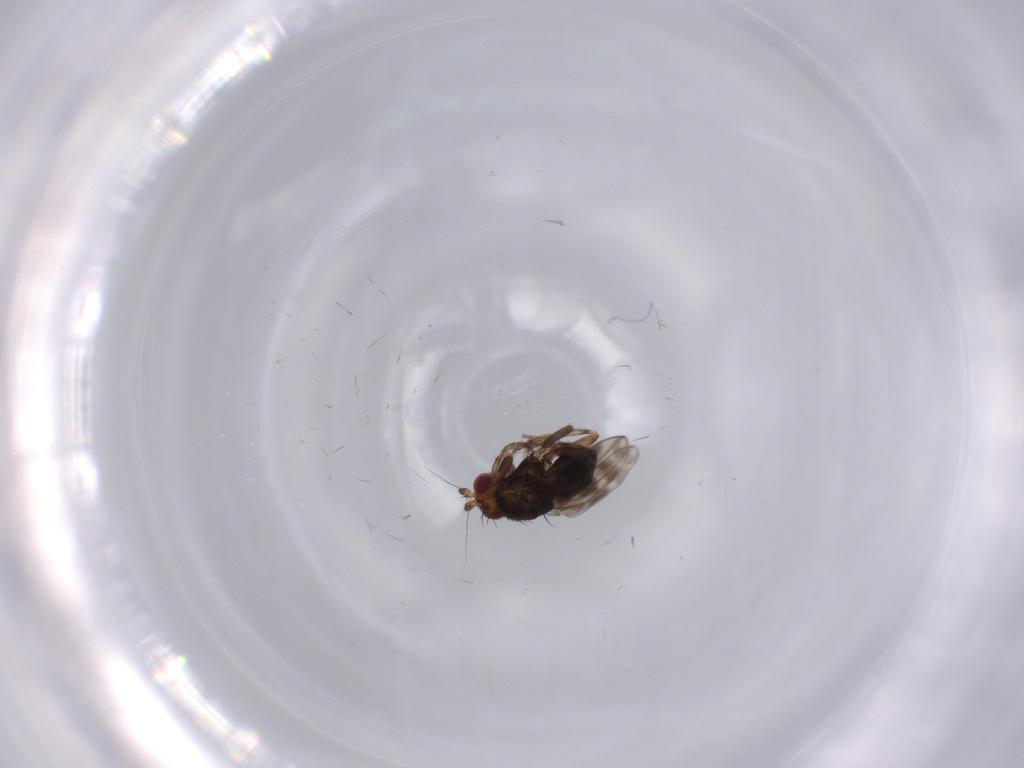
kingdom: Animalia
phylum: Arthropoda
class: Insecta
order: Diptera
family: Sphaeroceridae
